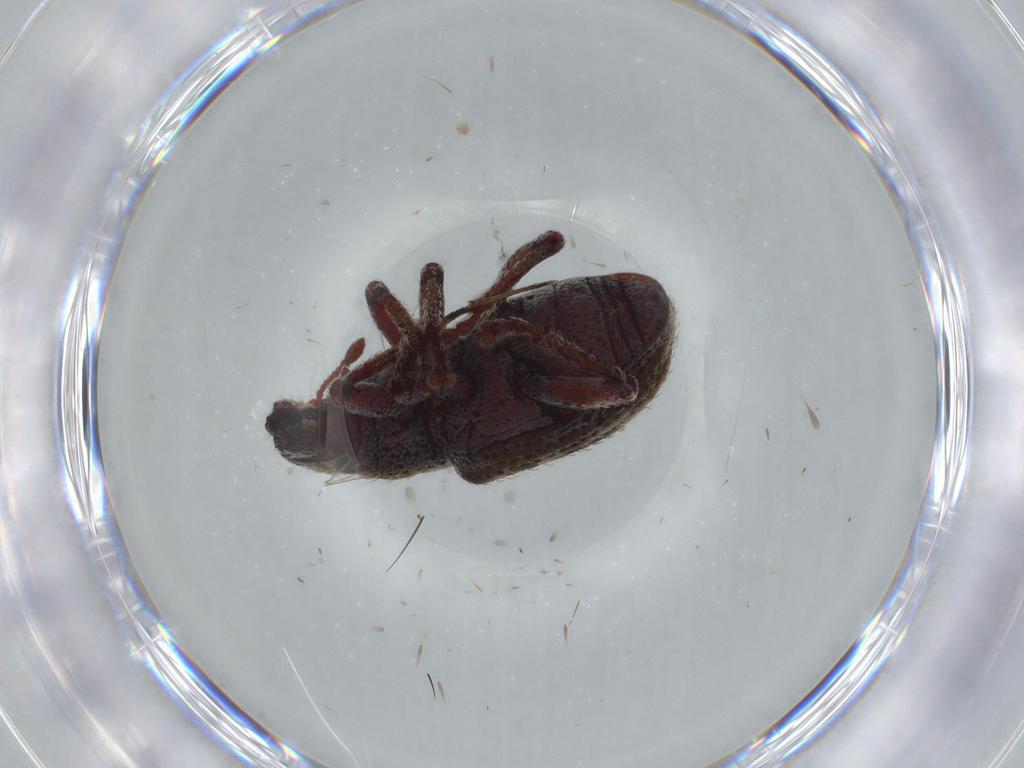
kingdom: Animalia
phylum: Arthropoda
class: Insecta
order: Coleoptera
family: Curculionidae
